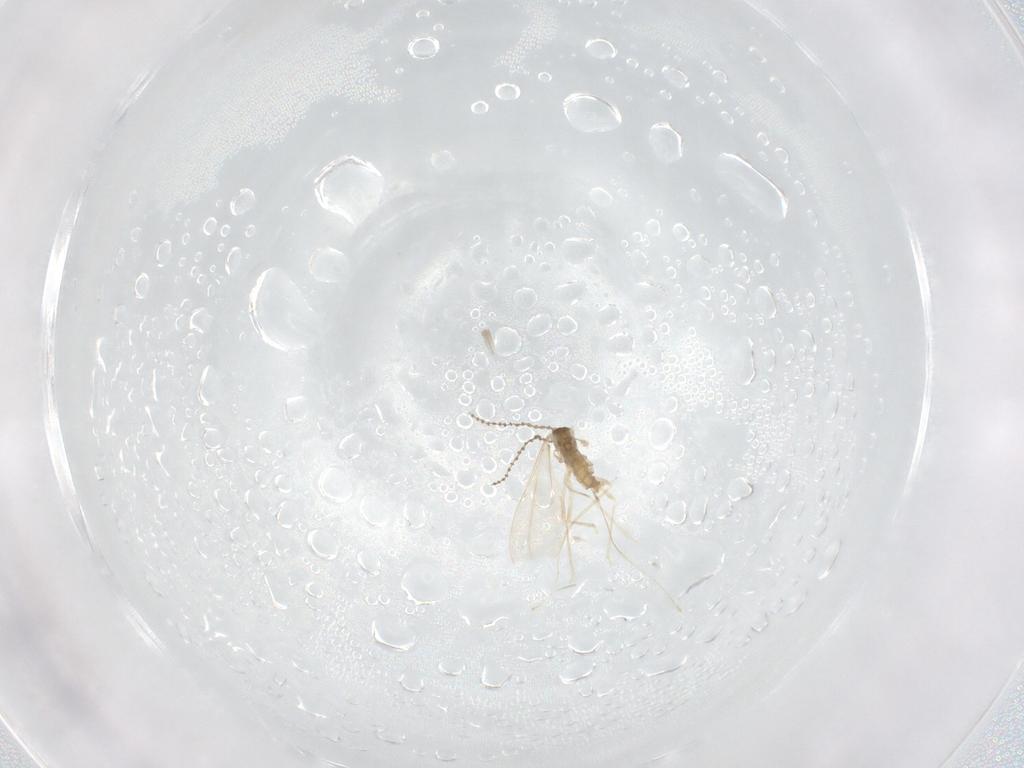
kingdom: Animalia
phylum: Arthropoda
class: Insecta
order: Diptera
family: Cecidomyiidae
